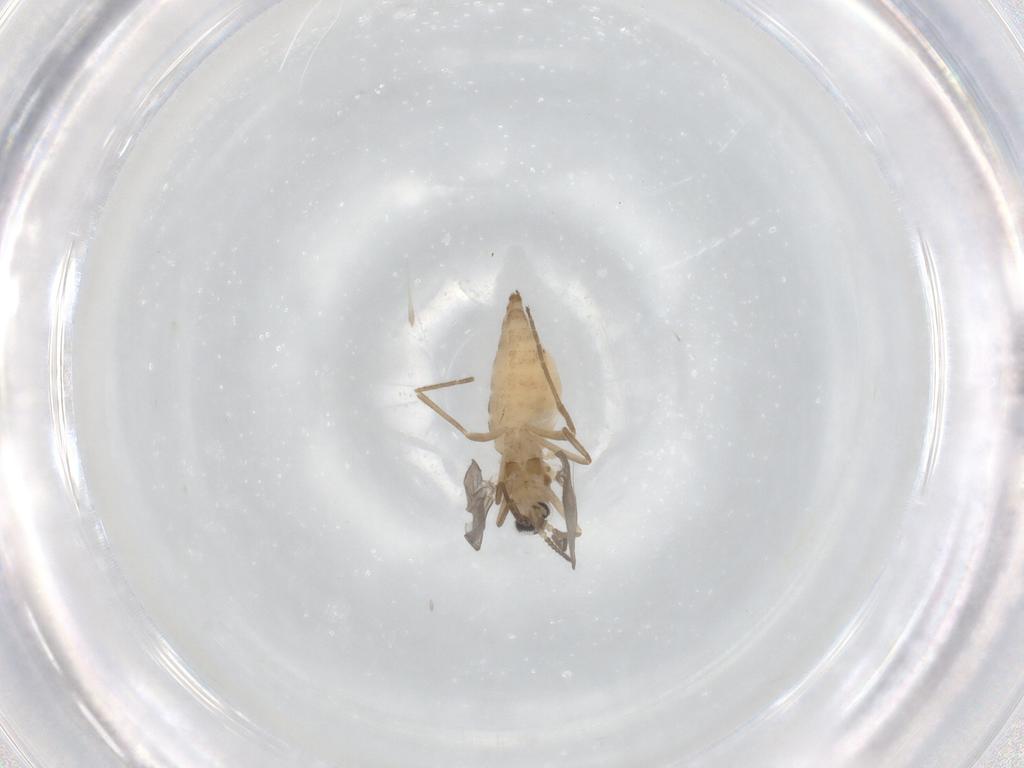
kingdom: Animalia
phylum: Arthropoda
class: Insecta
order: Diptera
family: Cecidomyiidae
